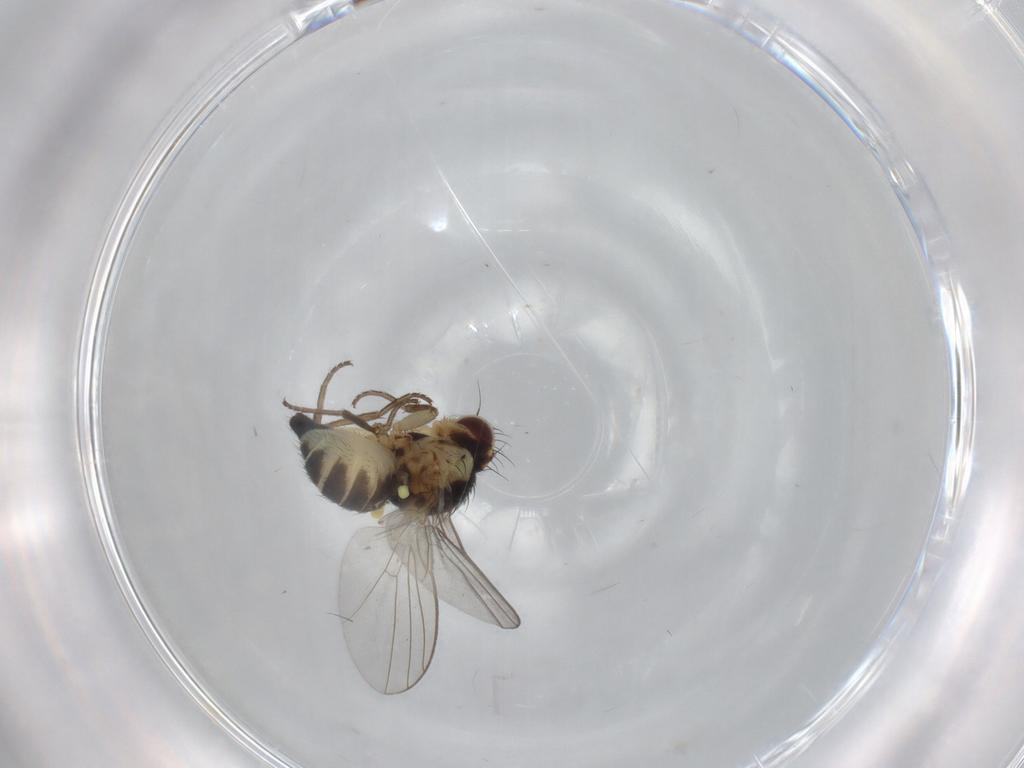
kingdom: Animalia
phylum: Arthropoda
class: Insecta
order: Diptera
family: Agromyzidae
